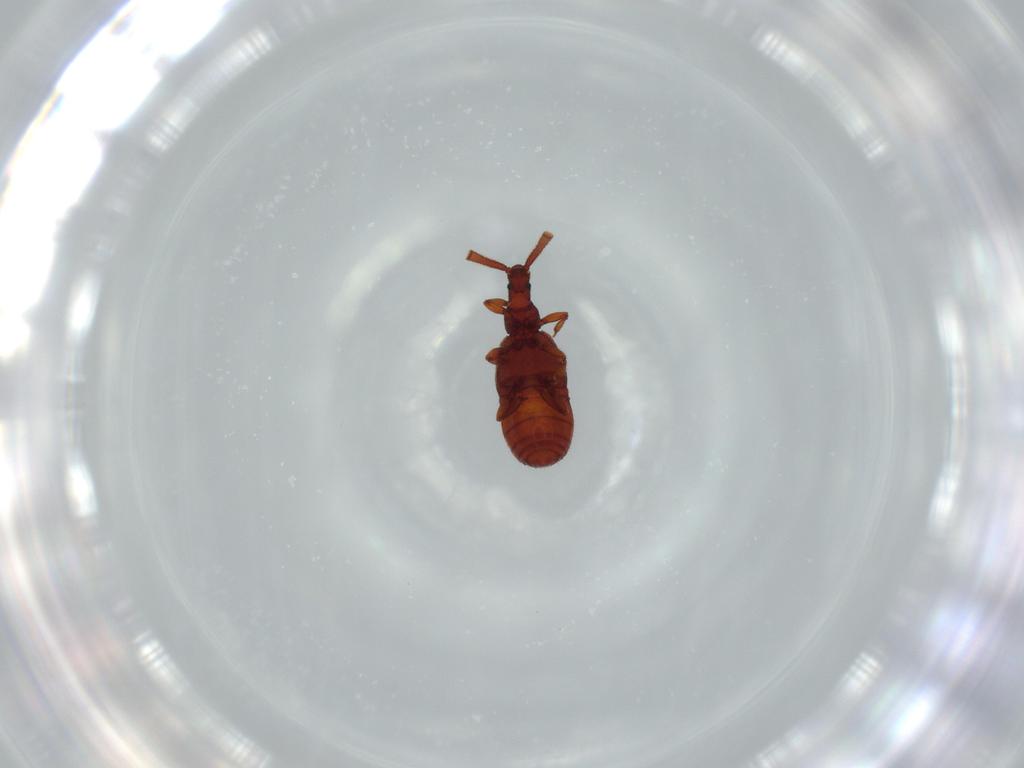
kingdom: Animalia
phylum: Arthropoda
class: Insecta
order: Coleoptera
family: Staphylinidae
